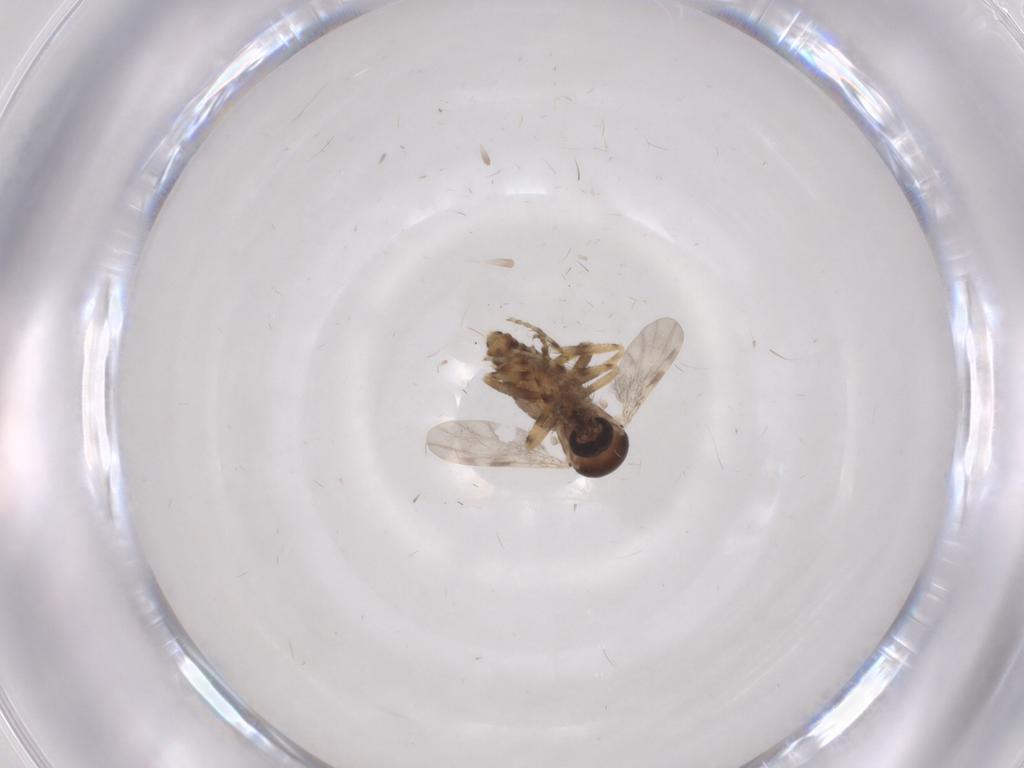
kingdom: Animalia
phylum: Arthropoda
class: Insecta
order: Diptera
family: Ceratopogonidae
